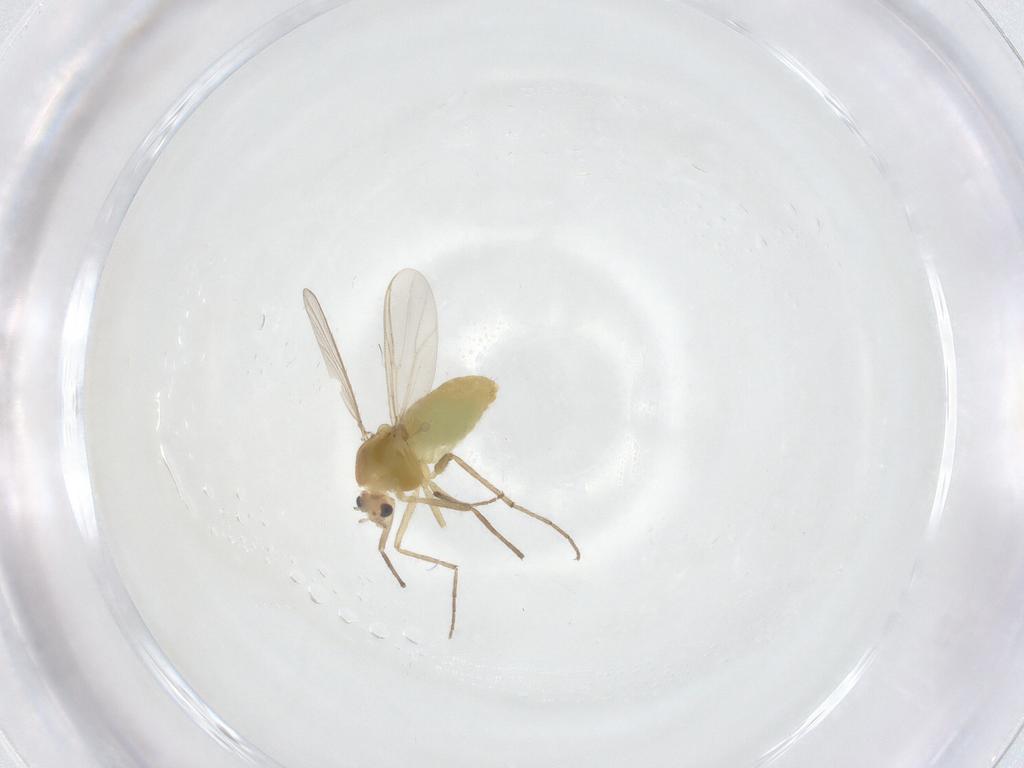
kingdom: Animalia
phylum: Arthropoda
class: Insecta
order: Diptera
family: Chironomidae
